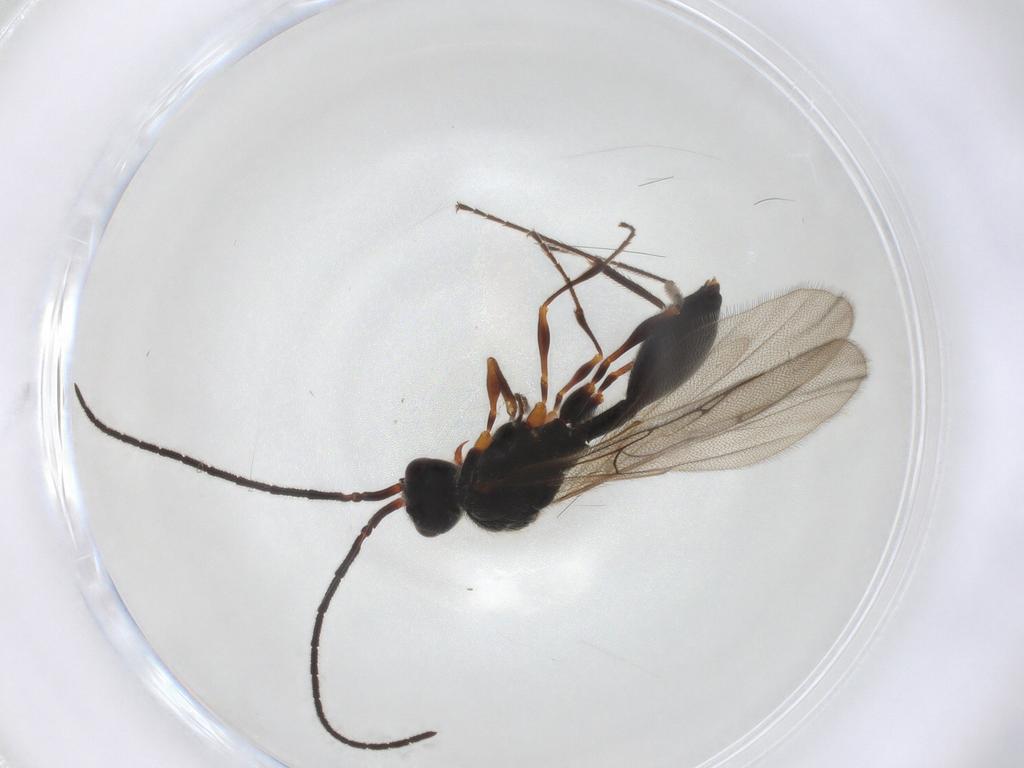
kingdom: Animalia
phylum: Arthropoda
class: Insecta
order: Hymenoptera
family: Diapriidae
